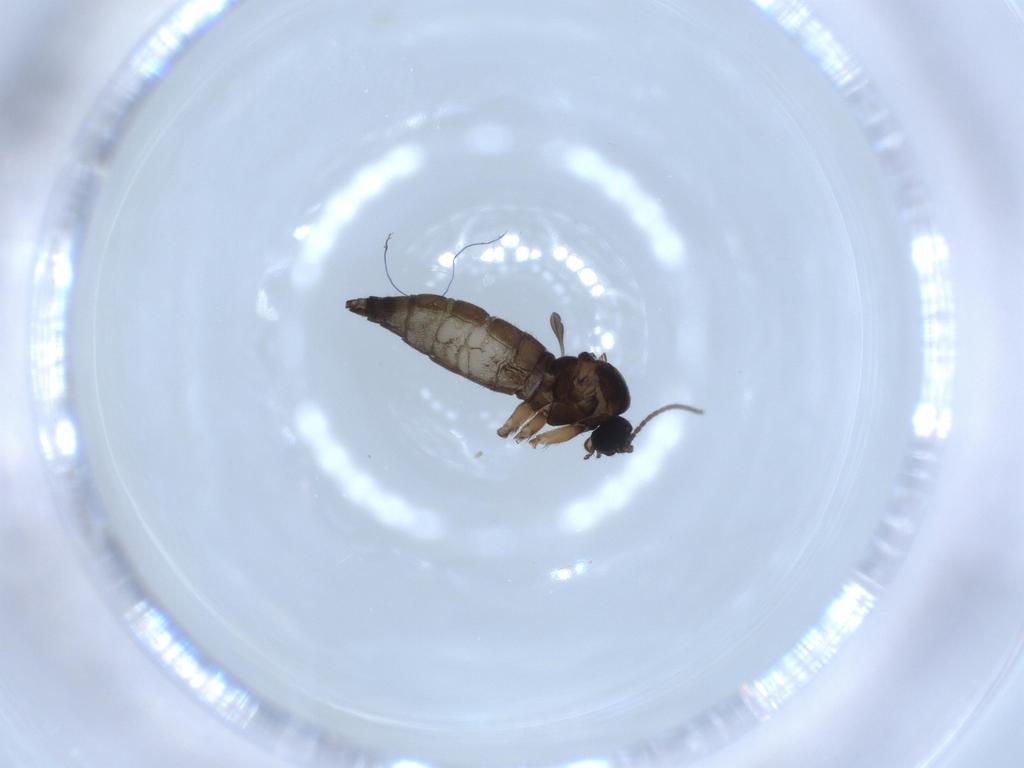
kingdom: Animalia
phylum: Arthropoda
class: Insecta
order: Diptera
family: Sciaridae
